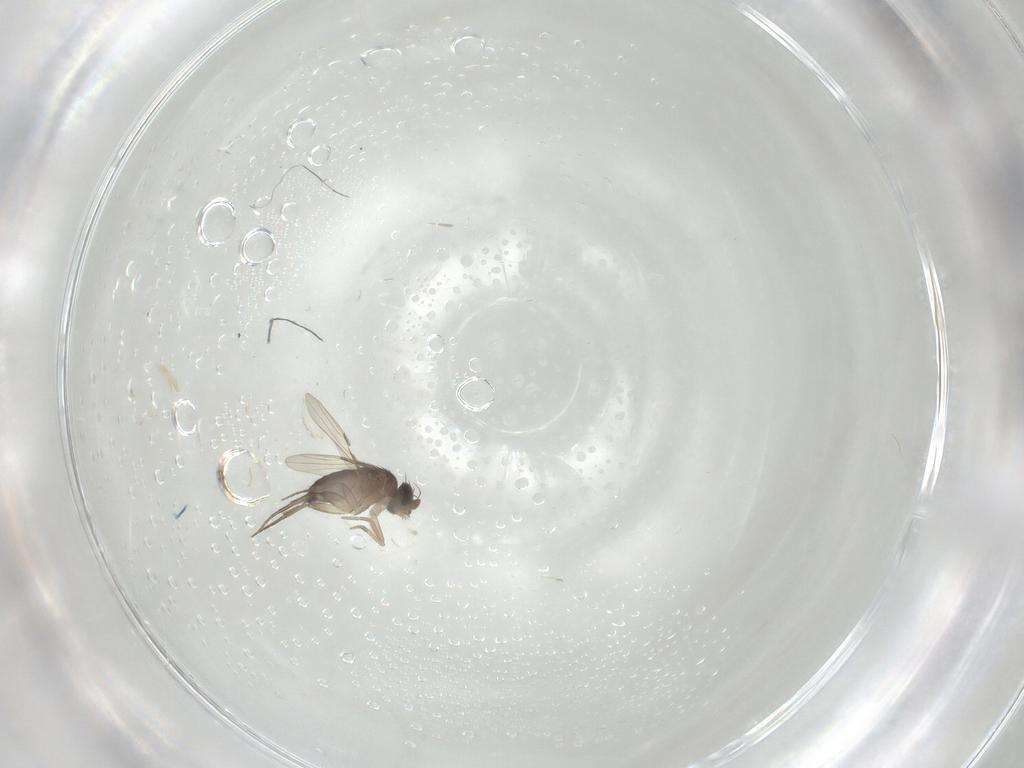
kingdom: Animalia
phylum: Arthropoda
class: Insecta
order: Diptera
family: Phoridae
